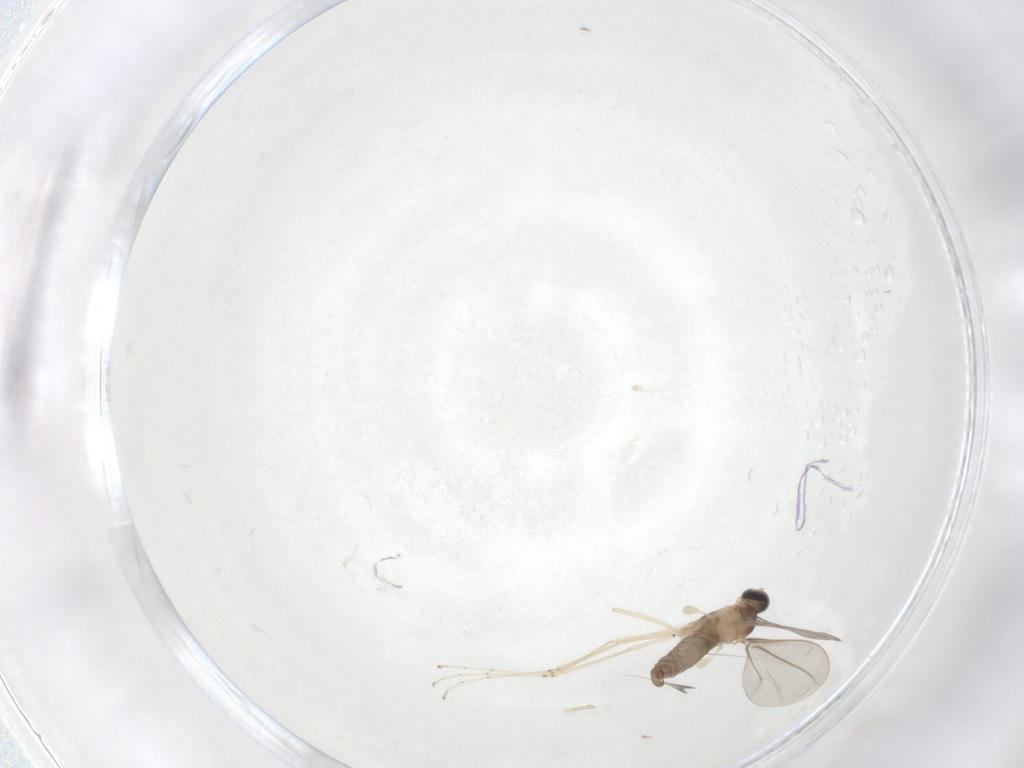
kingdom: Animalia
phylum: Arthropoda
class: Insecta
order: Diptera
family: Cecidomyiidae
